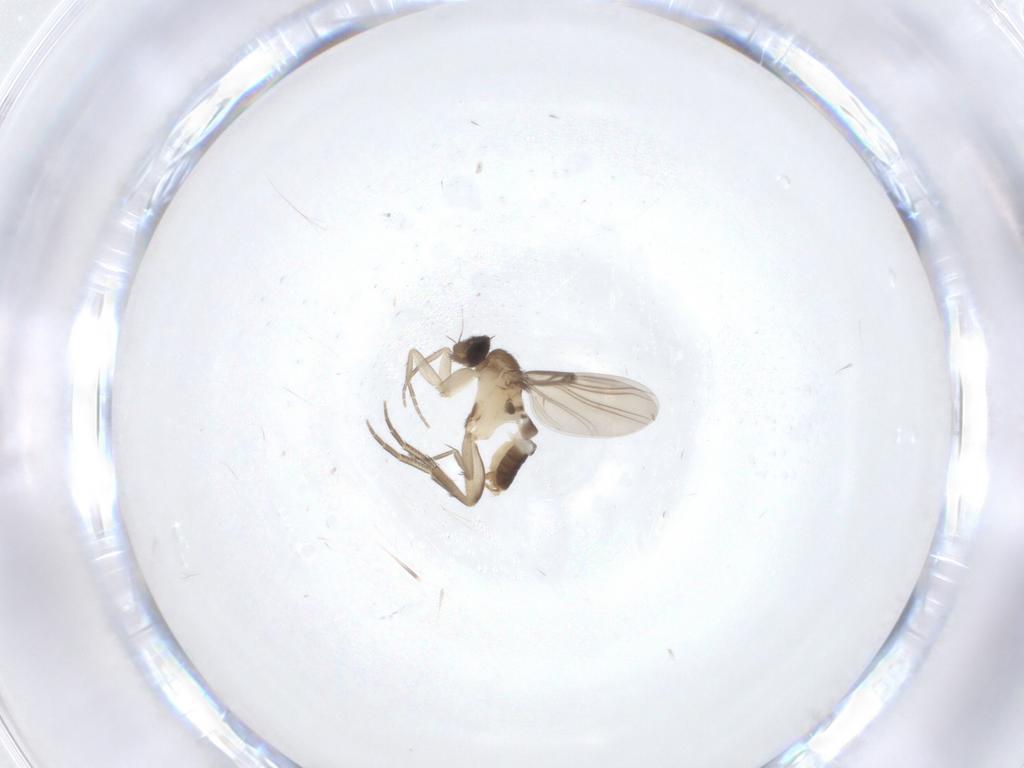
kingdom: Animalia
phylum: Arthropoda
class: Insecta
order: Diptera
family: Phoridae
